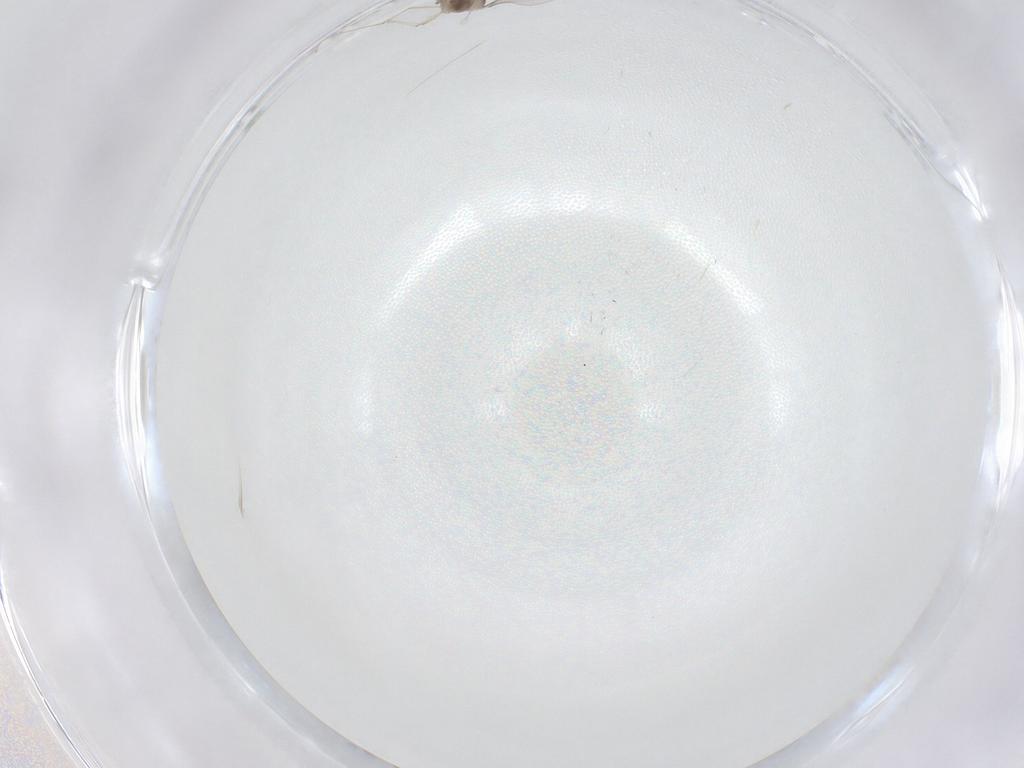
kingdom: Animalia
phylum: Arthropoda
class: Insecta
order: Diptera
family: Cecidomyiidae
